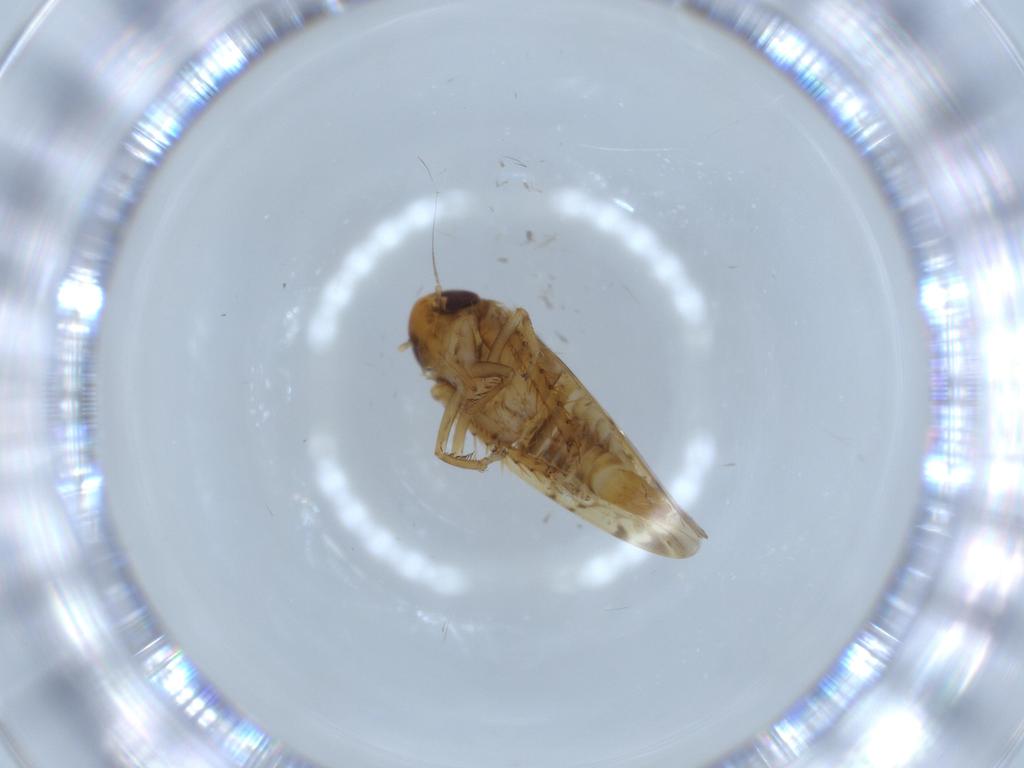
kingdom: Animalia
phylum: Arthropoda
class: Insecta
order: Hemiptera
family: Cicadellidae
